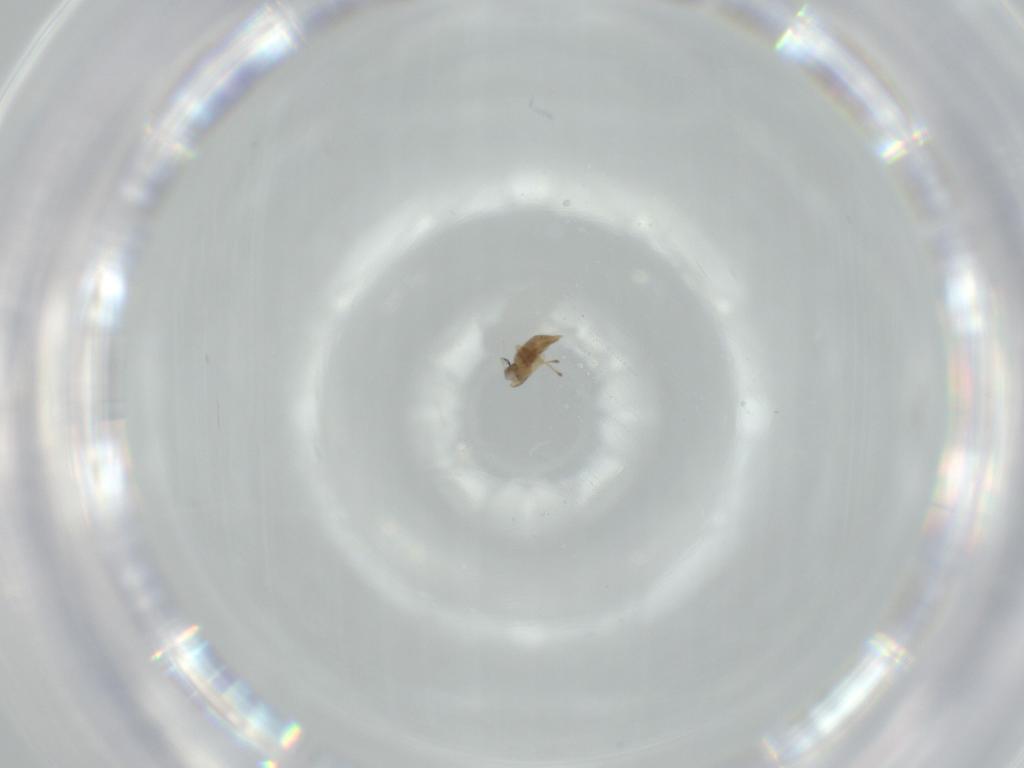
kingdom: Animalia
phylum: Arthropoda
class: Insecta
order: Hymenoptera
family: Encyrtidae
